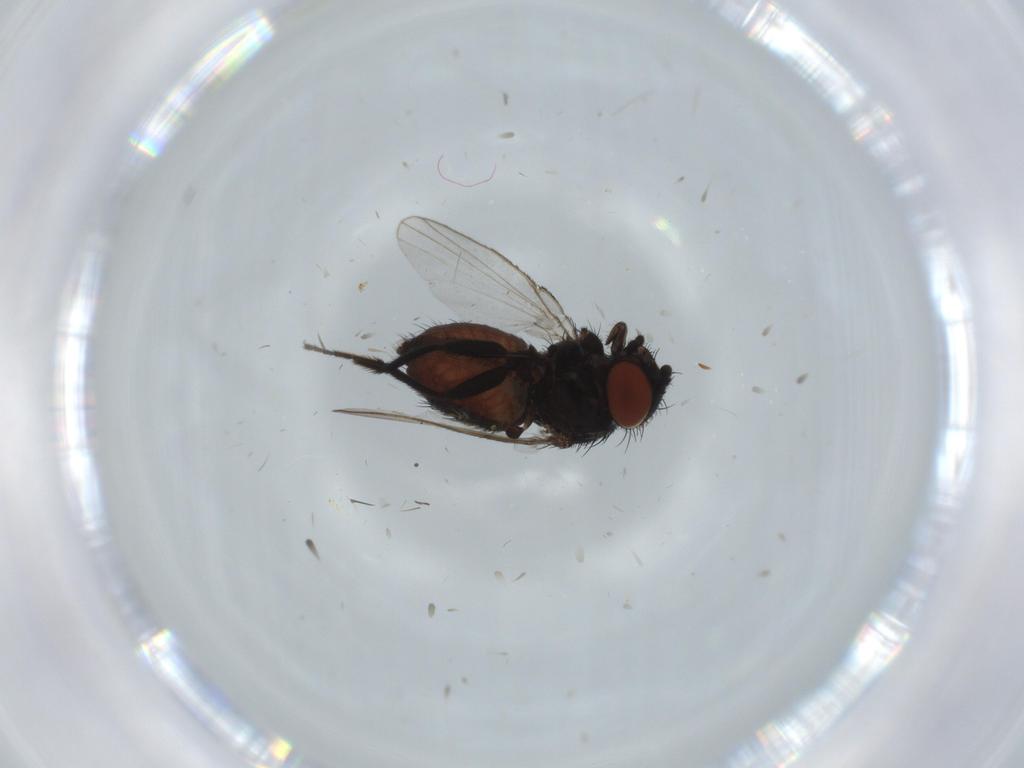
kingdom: Animalia
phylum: Arthropoda
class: Insecta
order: Diptera
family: Milichiidae
